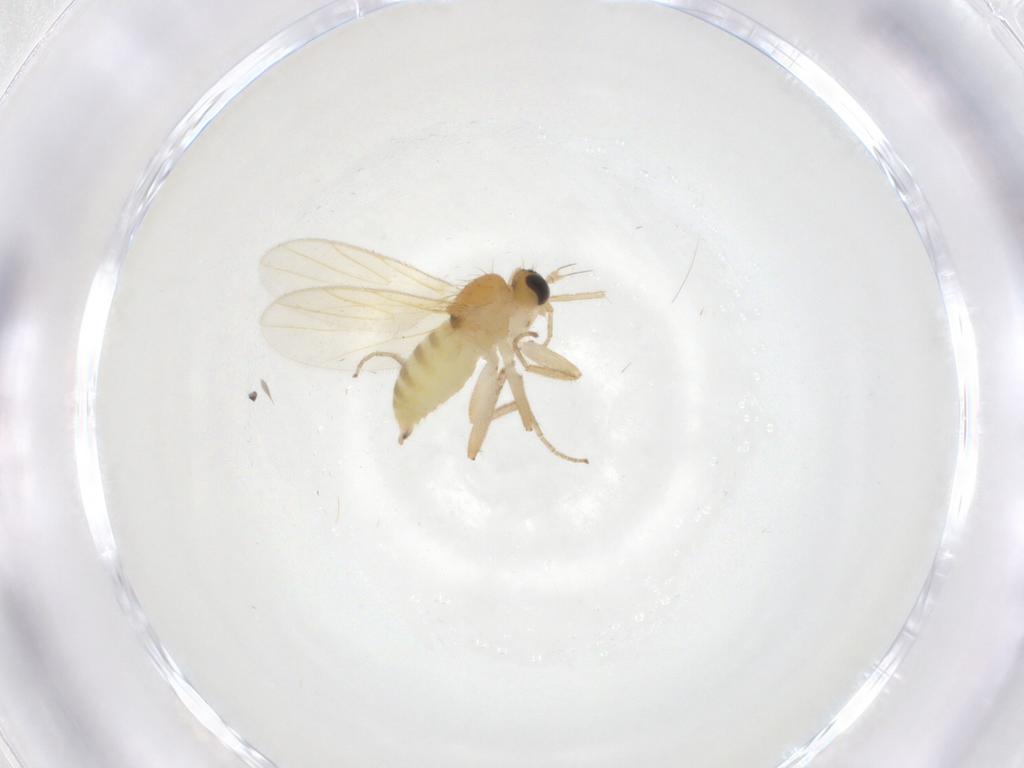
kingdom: Animalia
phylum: Arthropoda
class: Insecta
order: Diptera
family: Hybotidae
